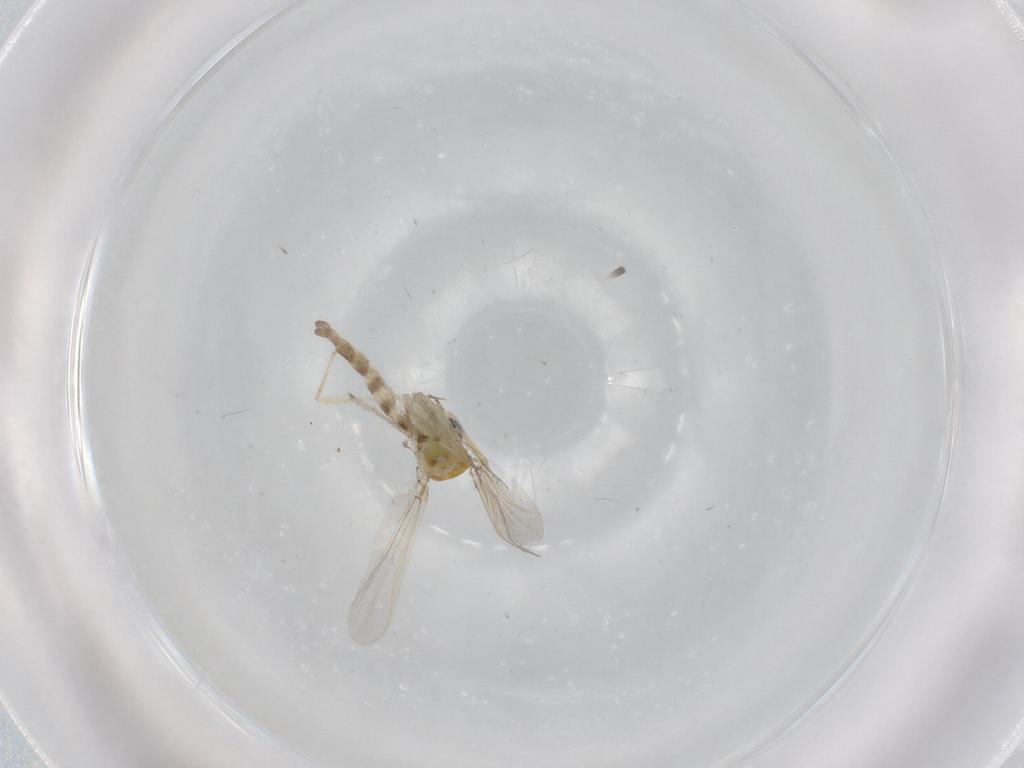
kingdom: Animalia
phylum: Arthropoda
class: Insecta
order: Diptera
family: Chironomidae
